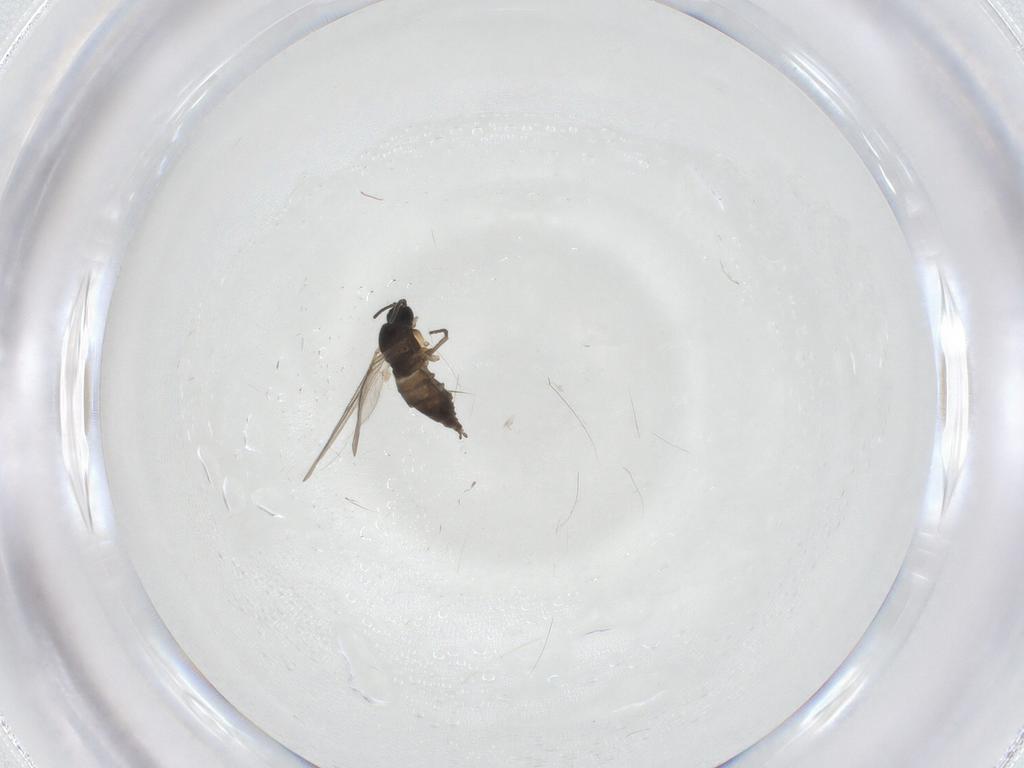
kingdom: Animalia
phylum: Arthropoda
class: Insecta
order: Diptera
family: Sciaridae
